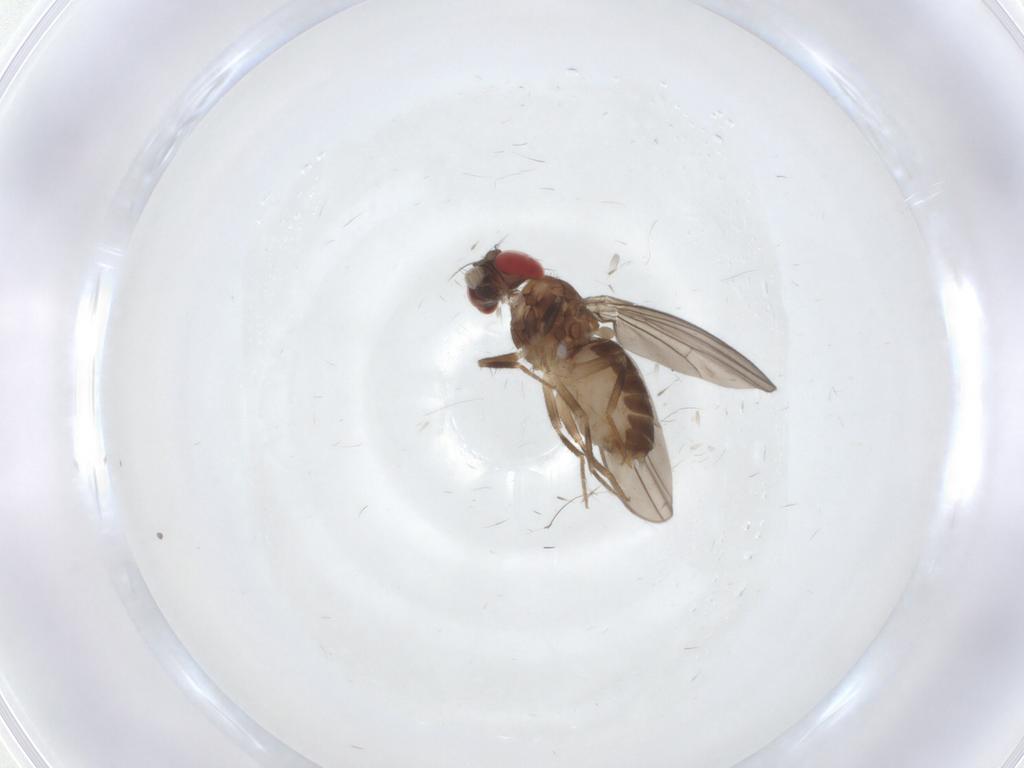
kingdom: Animalia
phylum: Arthropoda
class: Insecta
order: Diptera
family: Drosophilidae
